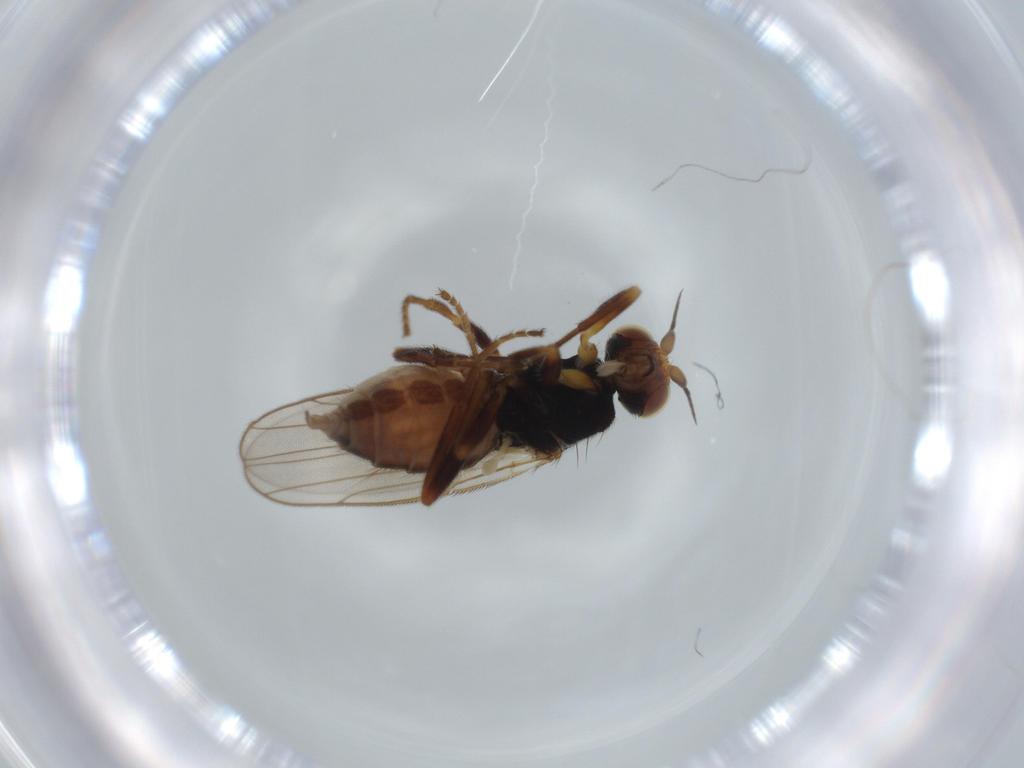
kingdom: Animalia
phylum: Arthropoda
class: Insecta
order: Diptera
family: Chloropidae
